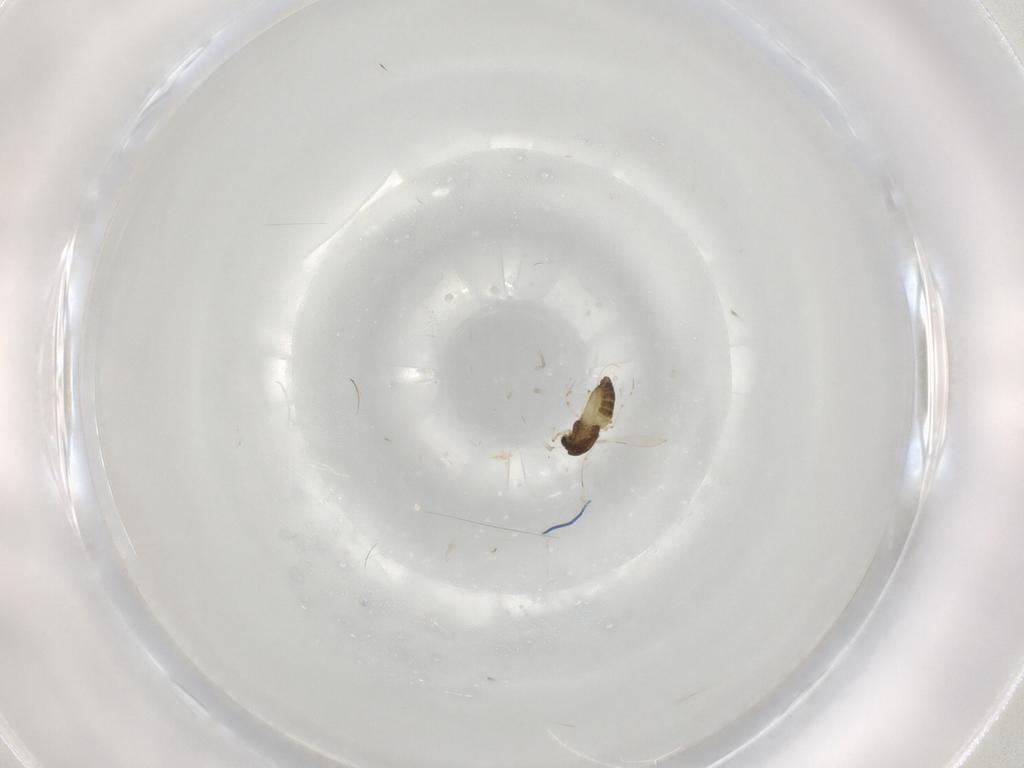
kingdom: Animalia
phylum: Arthropoda
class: Insecta
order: Diptera
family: Chironomidae
